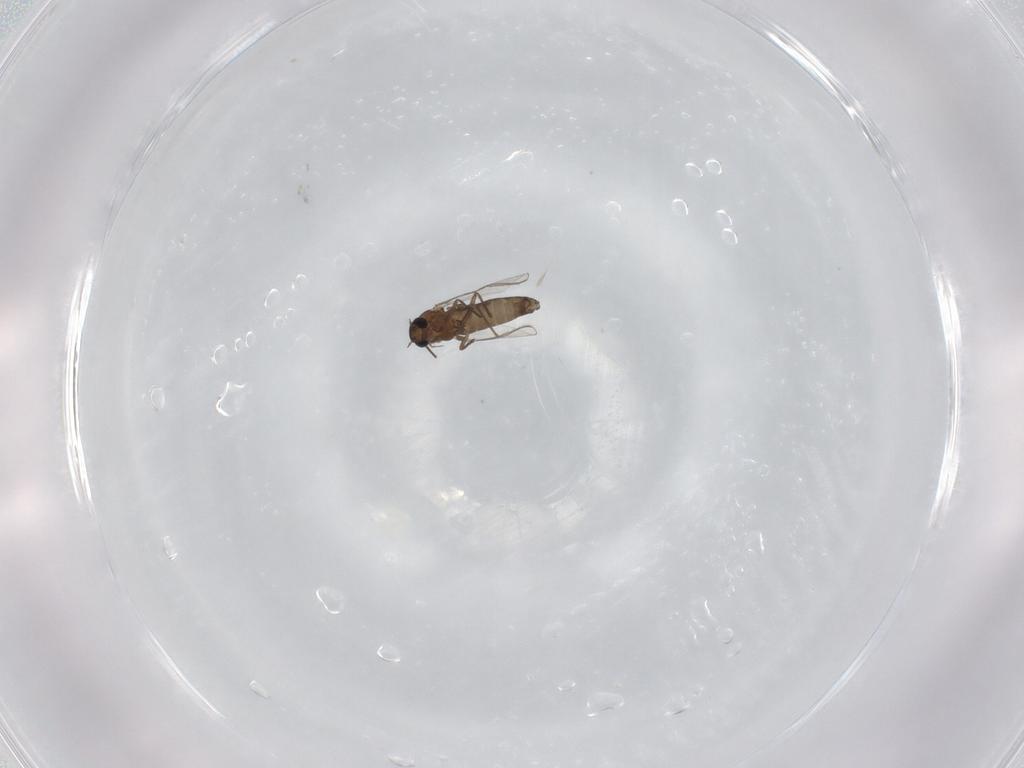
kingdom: Animalia
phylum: Arthropoda
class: Insecta
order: Diptera
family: Chironomidae
